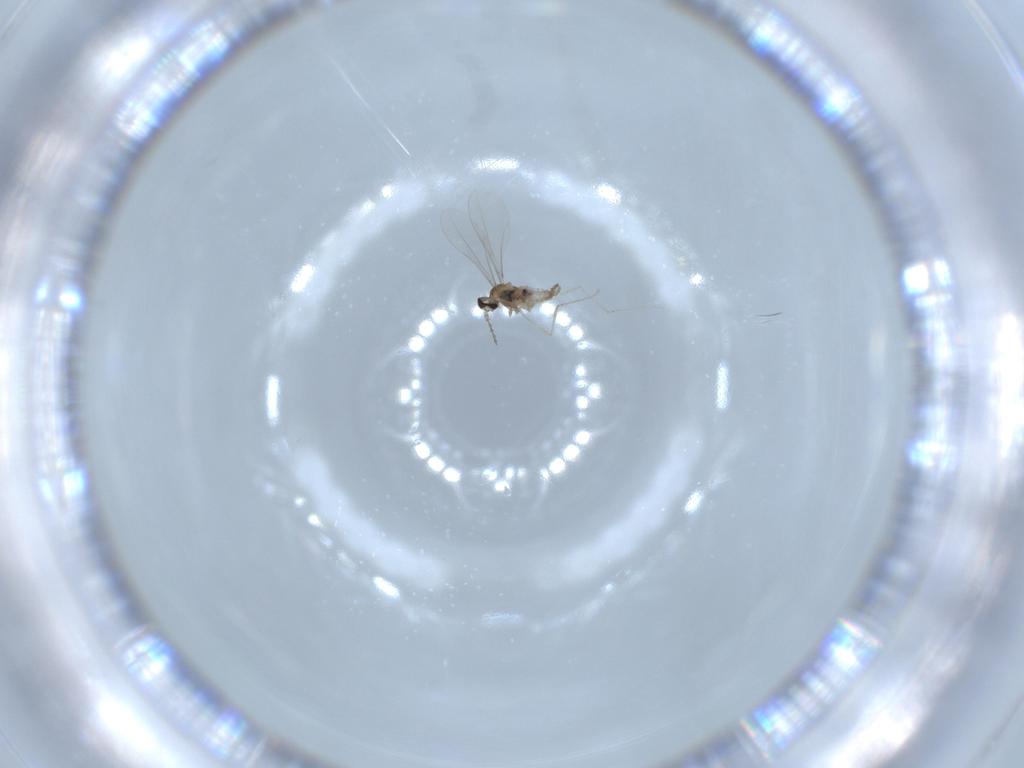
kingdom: Animalia
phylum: Arthropoda
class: Insecta
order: Diptera
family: Cecidomyiidae
